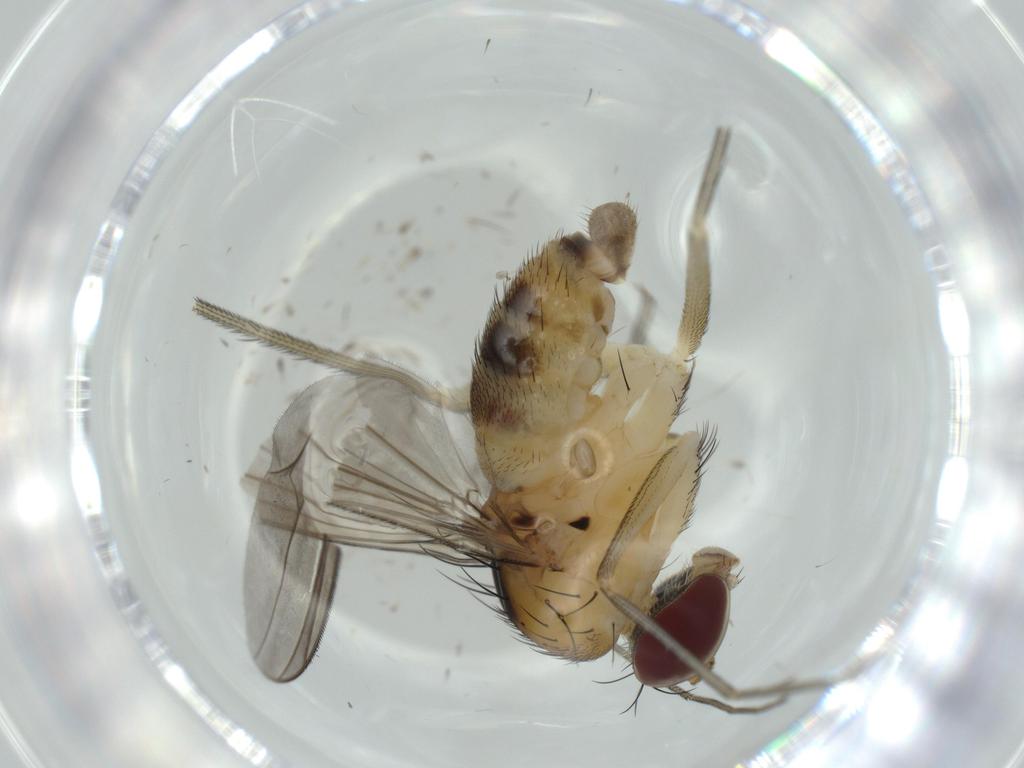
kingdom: Animalia
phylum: Arthropoda
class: Insecta
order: Diptera
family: Dolichopodidae
